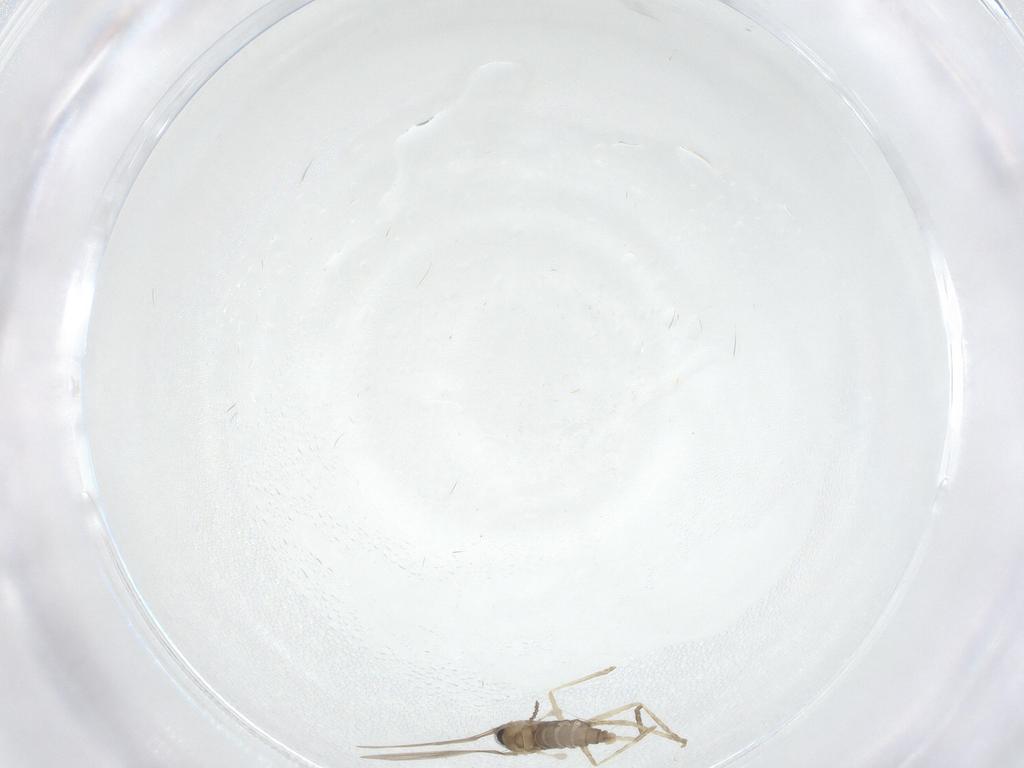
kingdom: Animalia
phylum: Arthropoda
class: Insecta
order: Diptera
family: Cecidomyiidae
